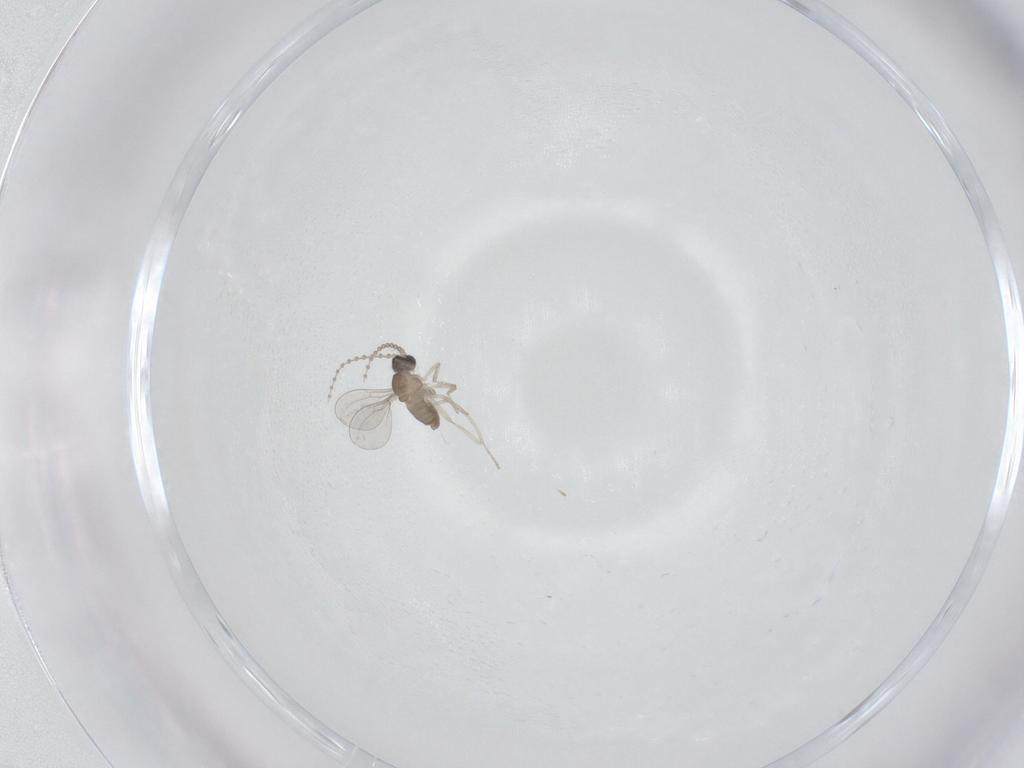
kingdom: Animalia
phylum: Arthropoda
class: Insecta
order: Diptera
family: Cecidomyiidae
